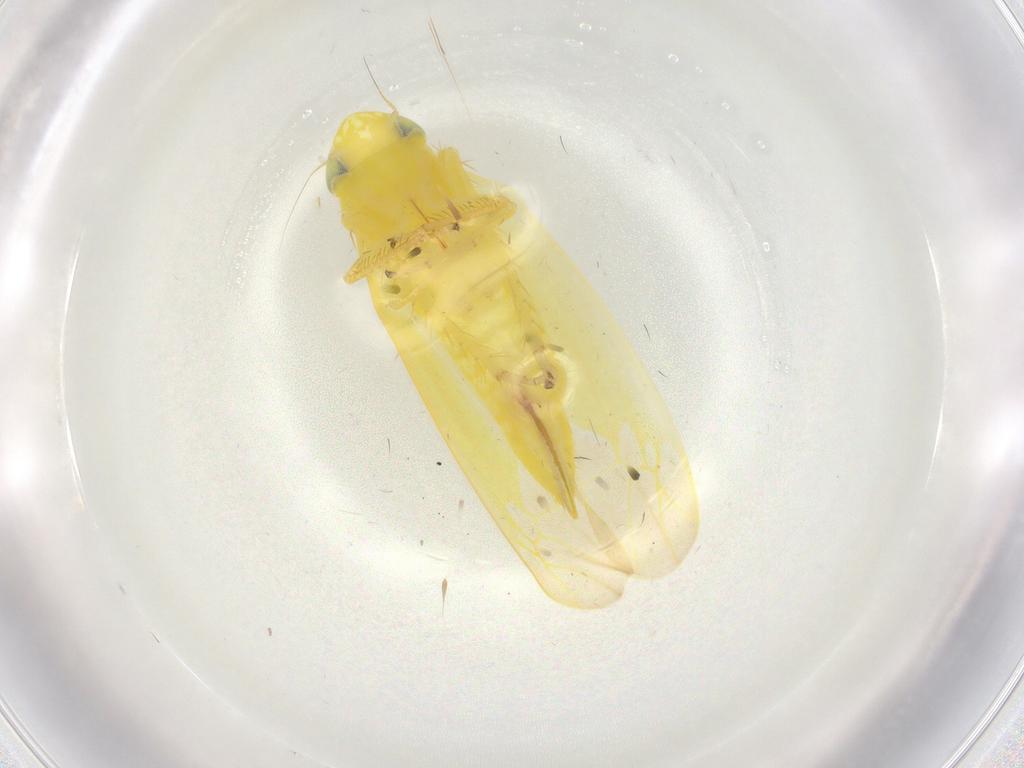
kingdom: Animalia
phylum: Arthropoda
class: Insecta
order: Hemiptera
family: Cicadellidae
